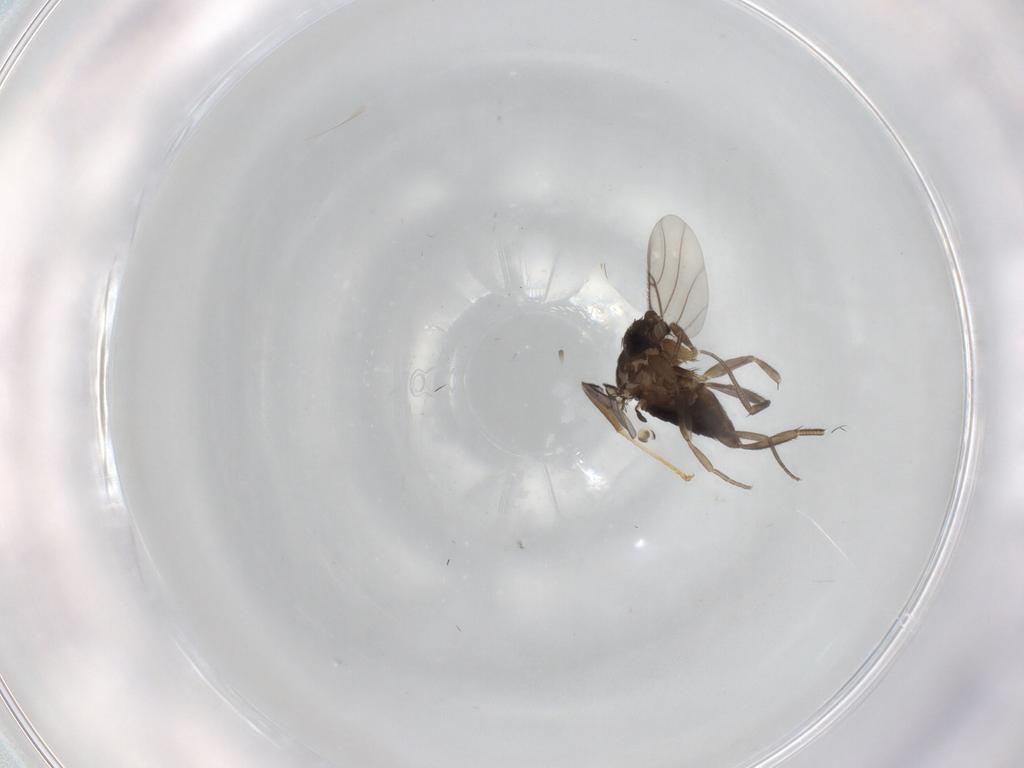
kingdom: Animalia
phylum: Arthropoda
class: Insecta
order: Diptera
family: Phoridae
